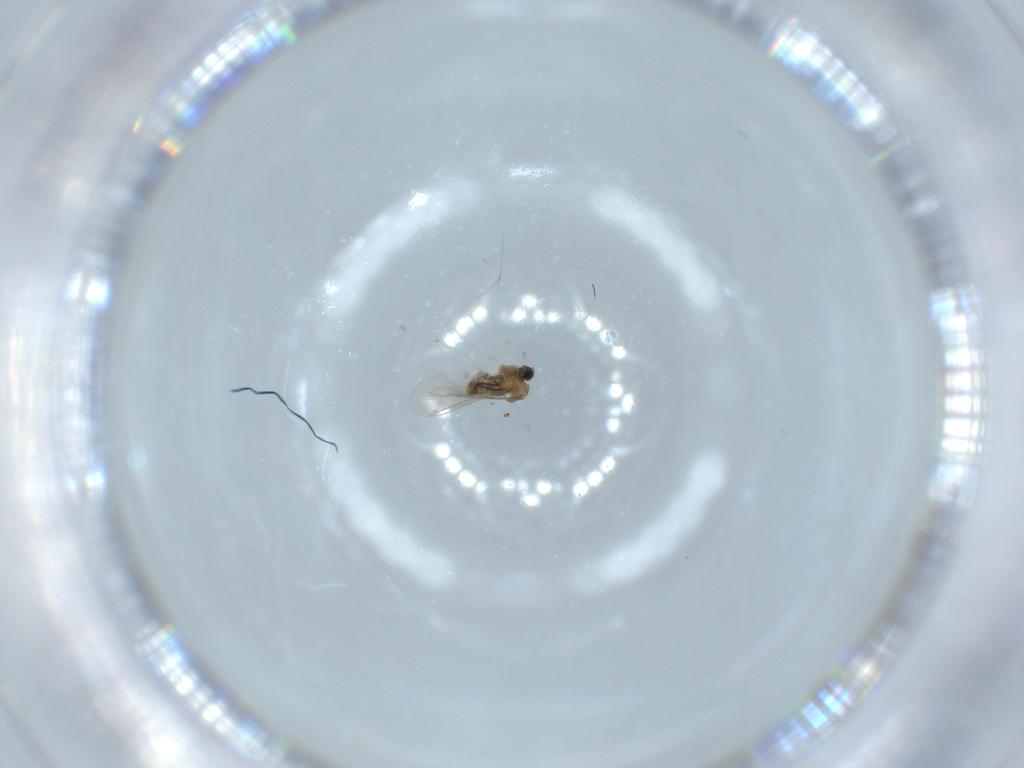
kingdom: Animalia
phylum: Arthropoda
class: Insecta
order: Diptera
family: Cecidomyiidae
